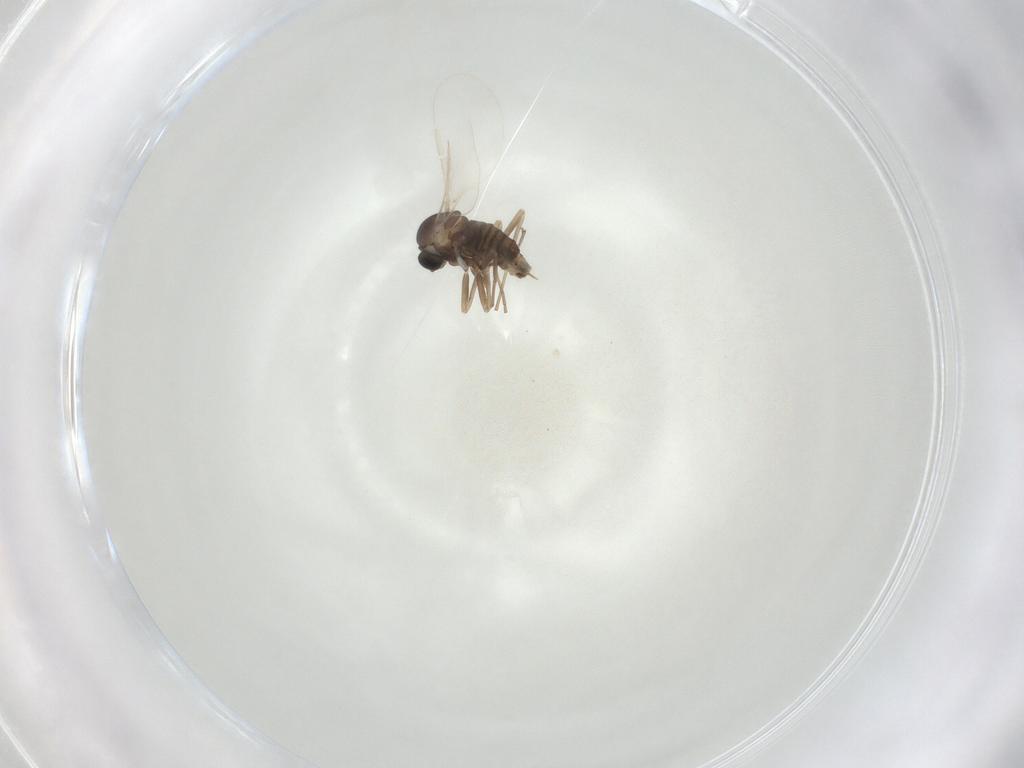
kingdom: Animalia
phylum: Arthropoda
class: Insecta
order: Diptera
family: Cecidomyiidae
